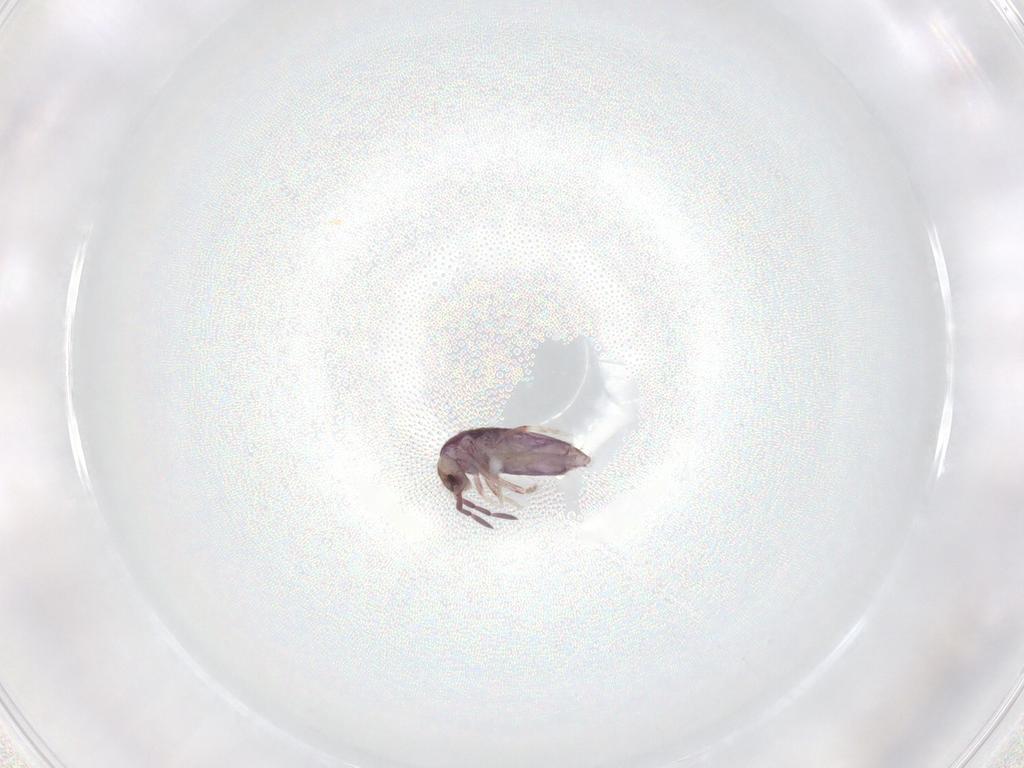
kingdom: Animalia
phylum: Arthropoda
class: Collembola
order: Entomobryomorpha
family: Entomobryidae
